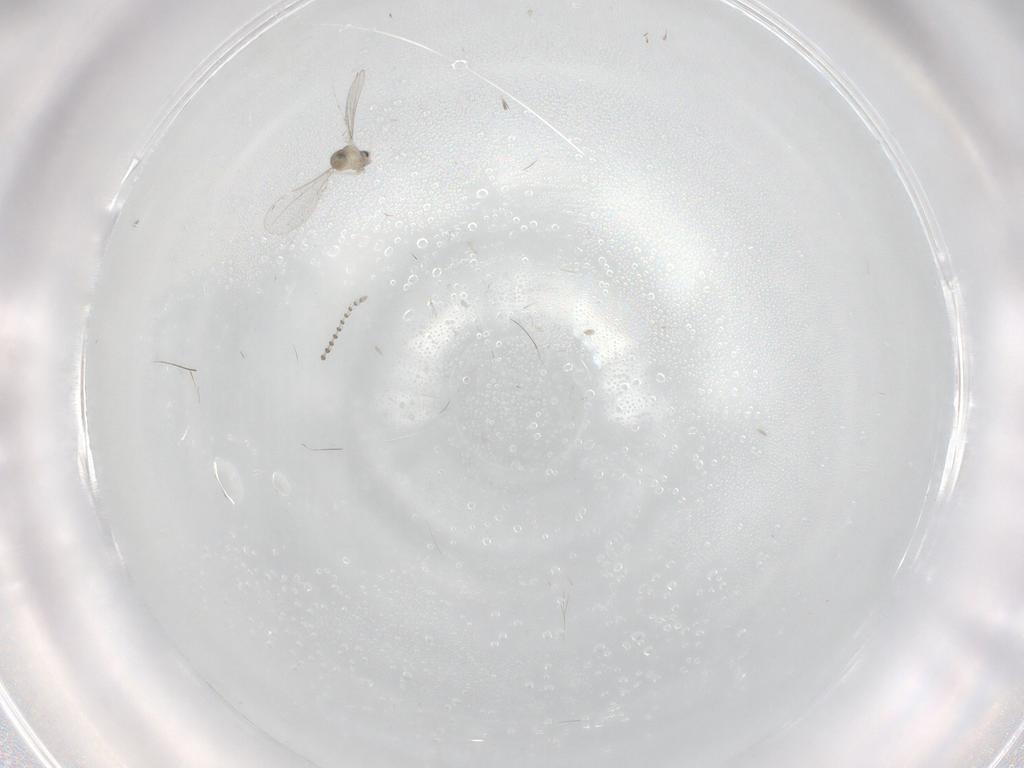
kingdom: Animalia
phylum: Arthropoda
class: Insecta
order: Diptera
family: Cecidomyiidae
